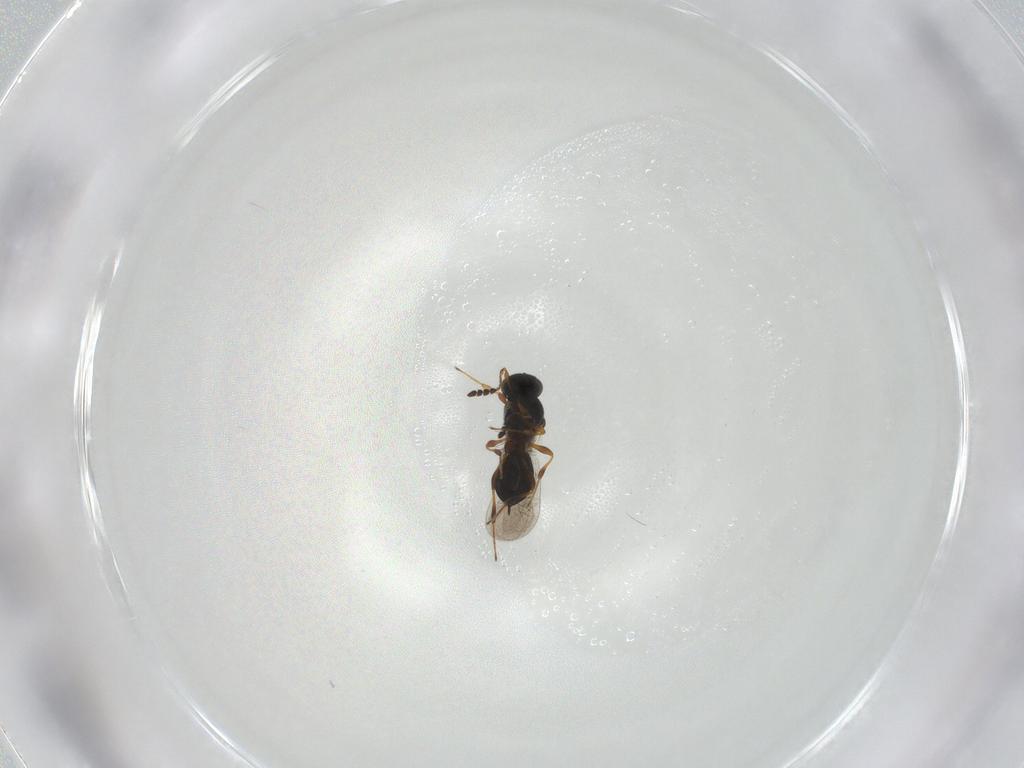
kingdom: Animalia
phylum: Arthropoda
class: Insecta
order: Hymenoptera
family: Platygastridae
